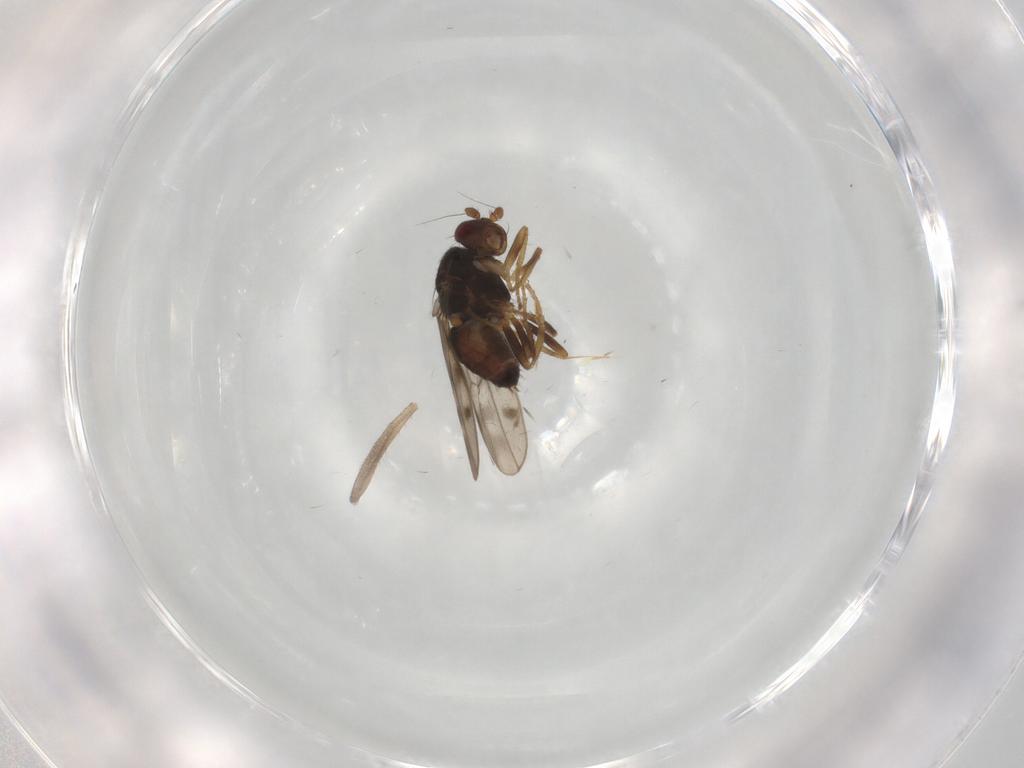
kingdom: Animalia
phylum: Arthropoda
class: Insecta
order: Diptera
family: Sphaeroceridae
